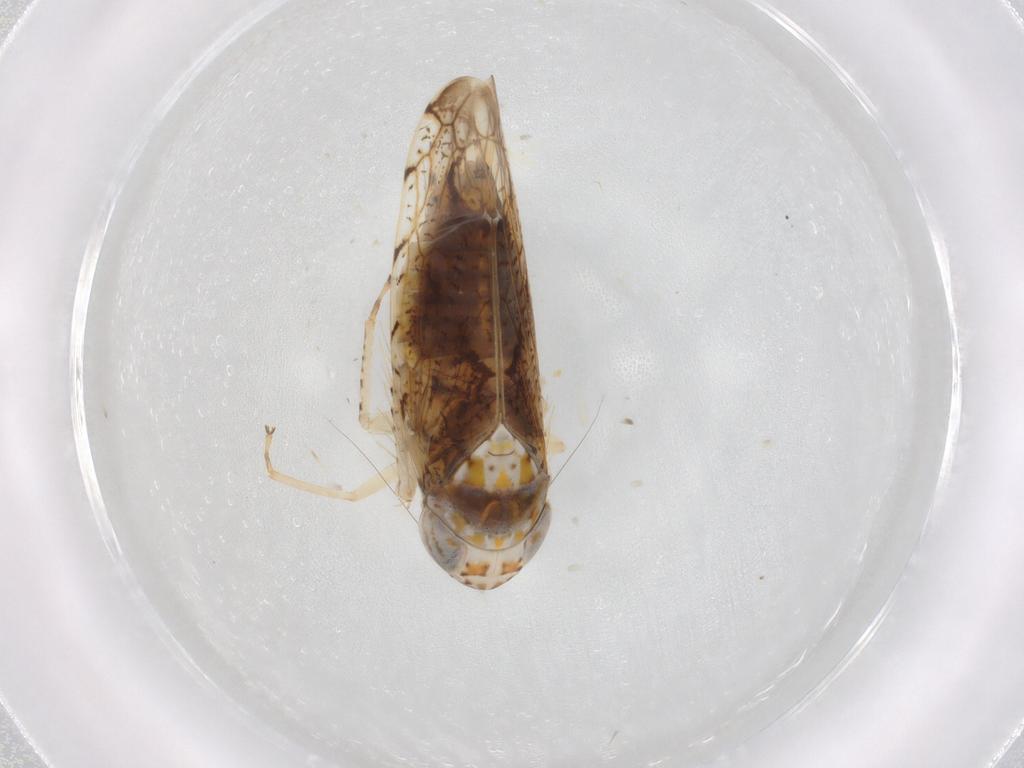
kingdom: Animalia
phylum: Arthropoda
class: Insecta
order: Hemiptera
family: Cicadellidae
